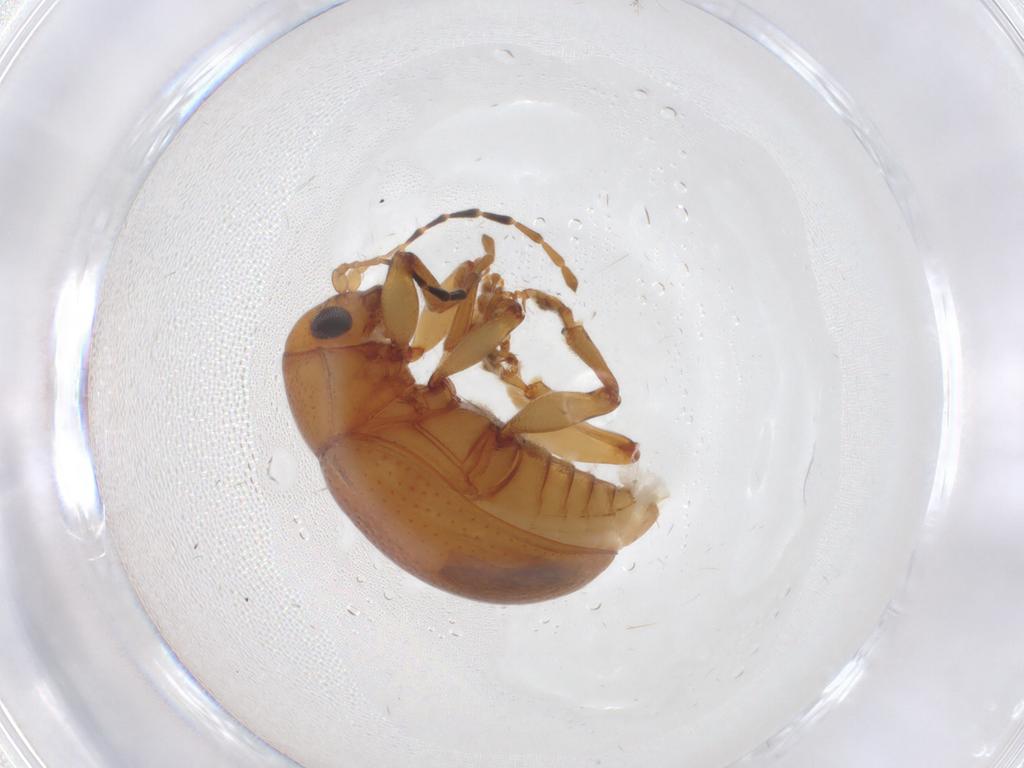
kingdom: Animalia
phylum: Arthropoda
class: Insecta
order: Coleoptera
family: Chrysomelidae
